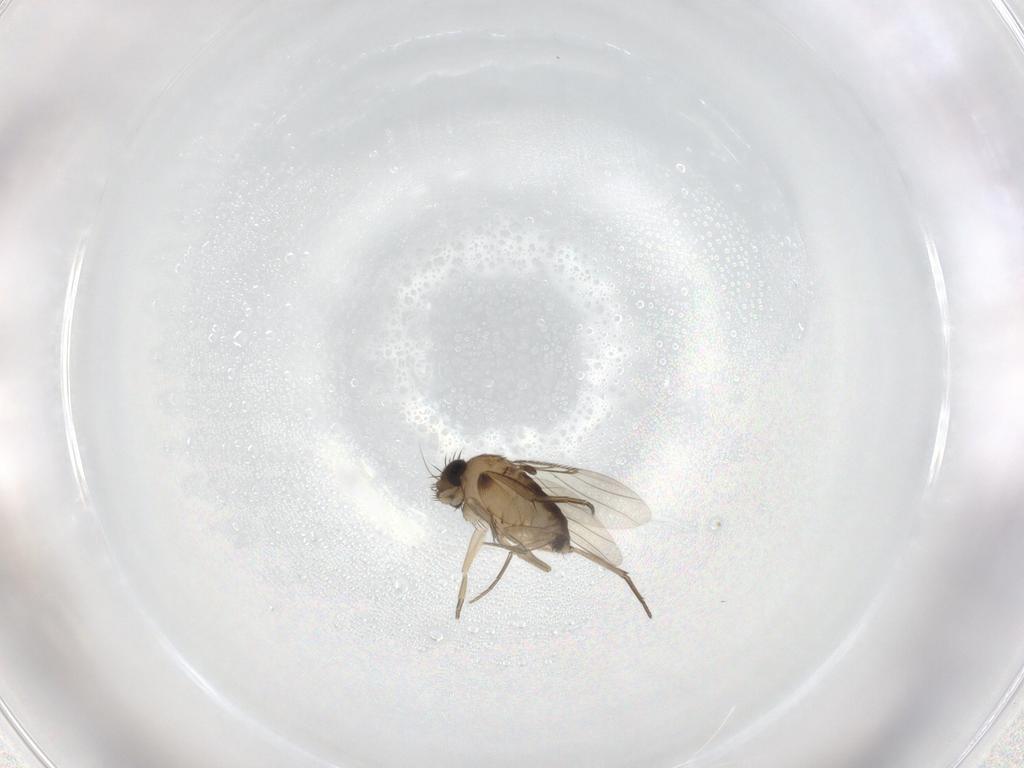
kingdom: Animalia
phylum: Arthropoda
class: Insecta
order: Diptera
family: Phoridae
